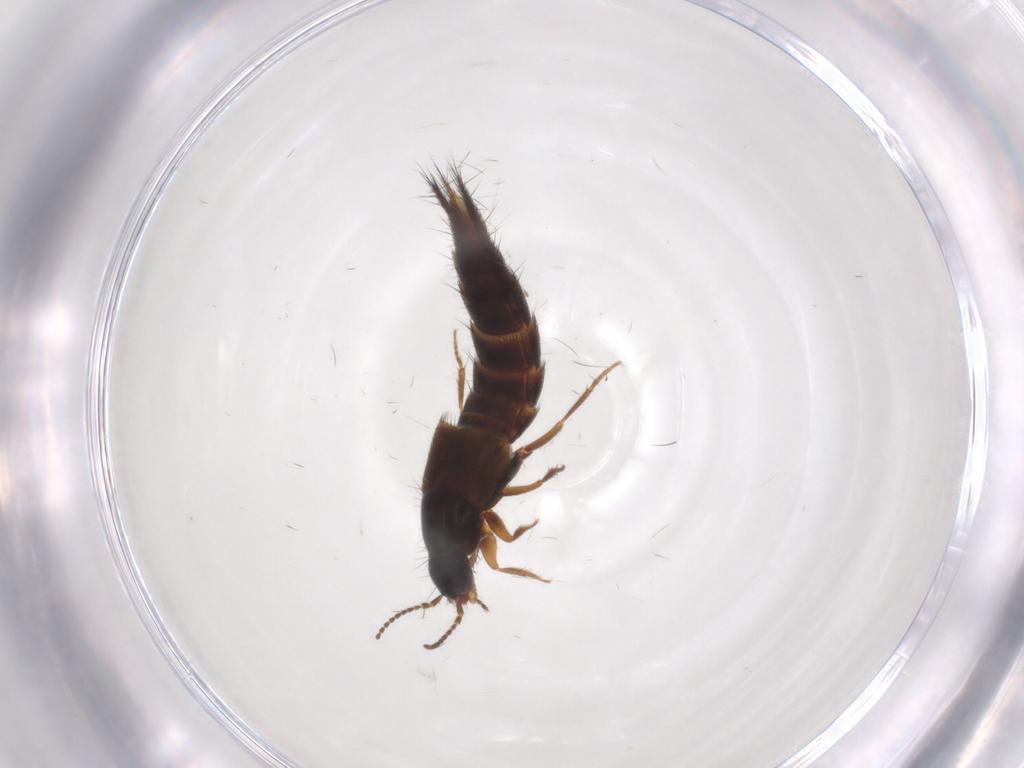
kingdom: Animalia
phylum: Arthropoda
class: Insecta
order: Coleoptera
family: Staphylinidae
